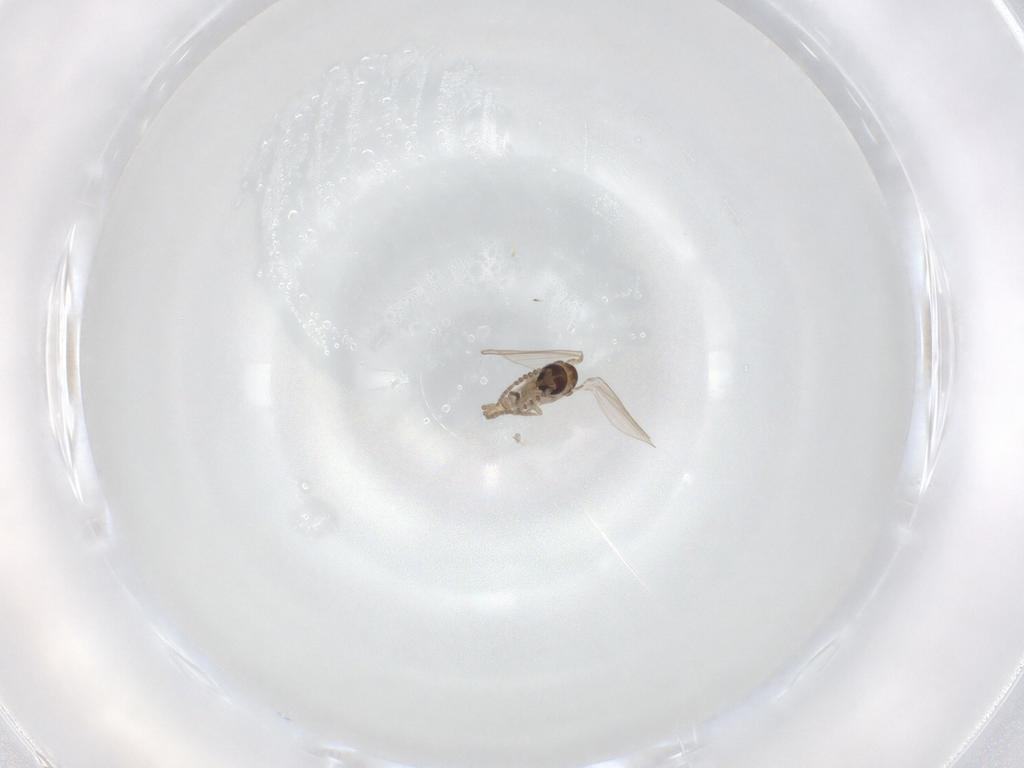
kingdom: Animalia
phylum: Arthropoda
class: Insecta
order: Diptera
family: Psychodidae
